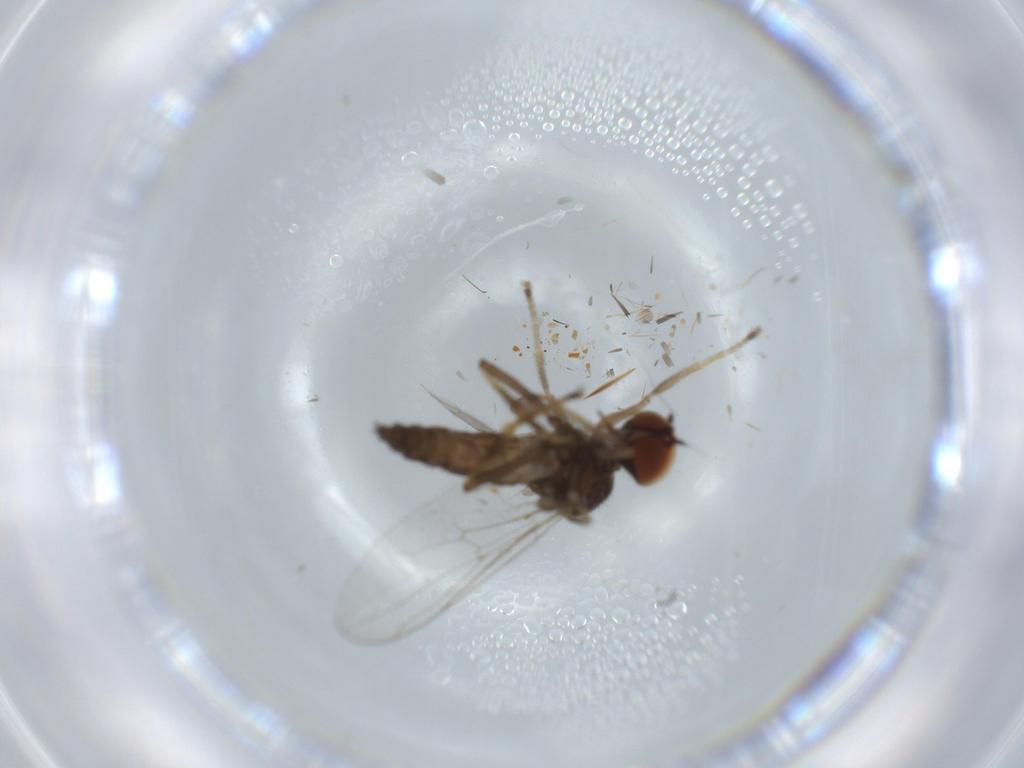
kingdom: Animalia
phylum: Arthropoda
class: Insecta
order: Diptera
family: Hybotidae
